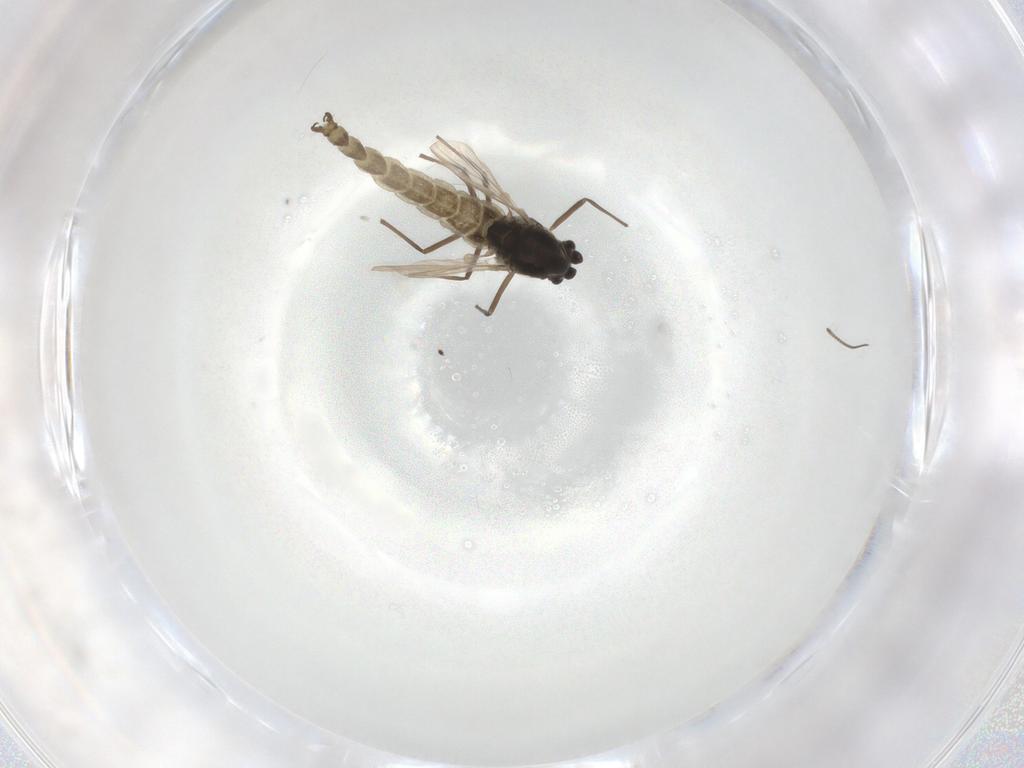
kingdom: Animalia
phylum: Arthropoda
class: Insecta
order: Diptera
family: Chironomidae
